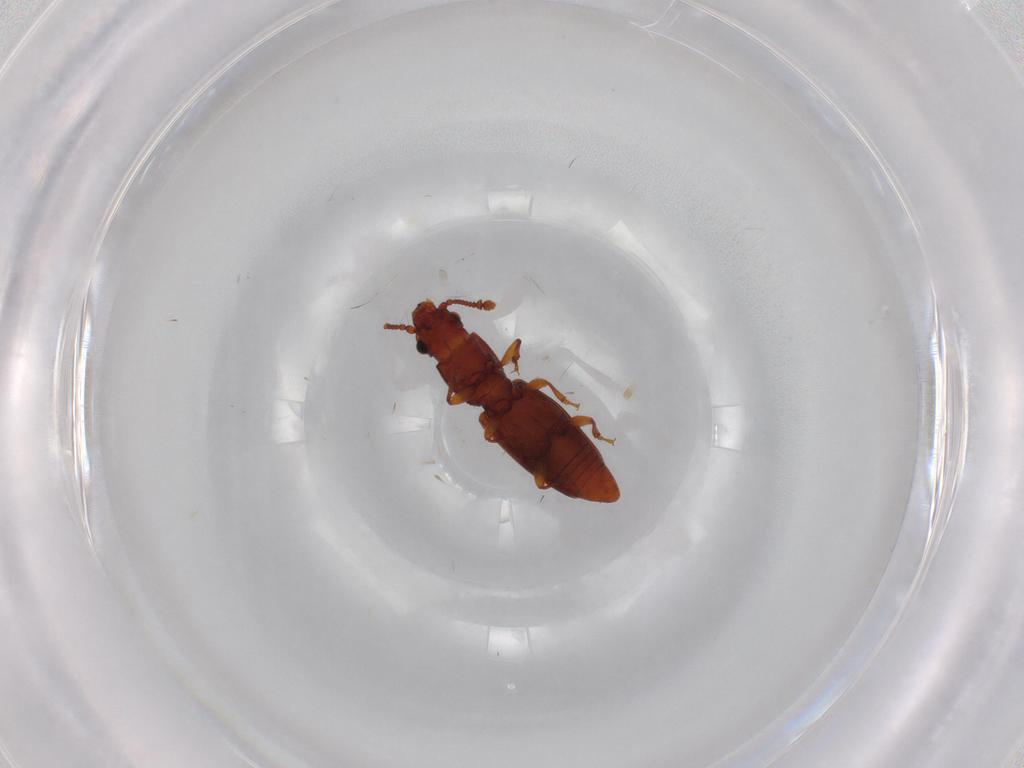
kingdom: Animalia
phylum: Arthropoda
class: Insecta
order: Coleoptera
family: Monotomidae
